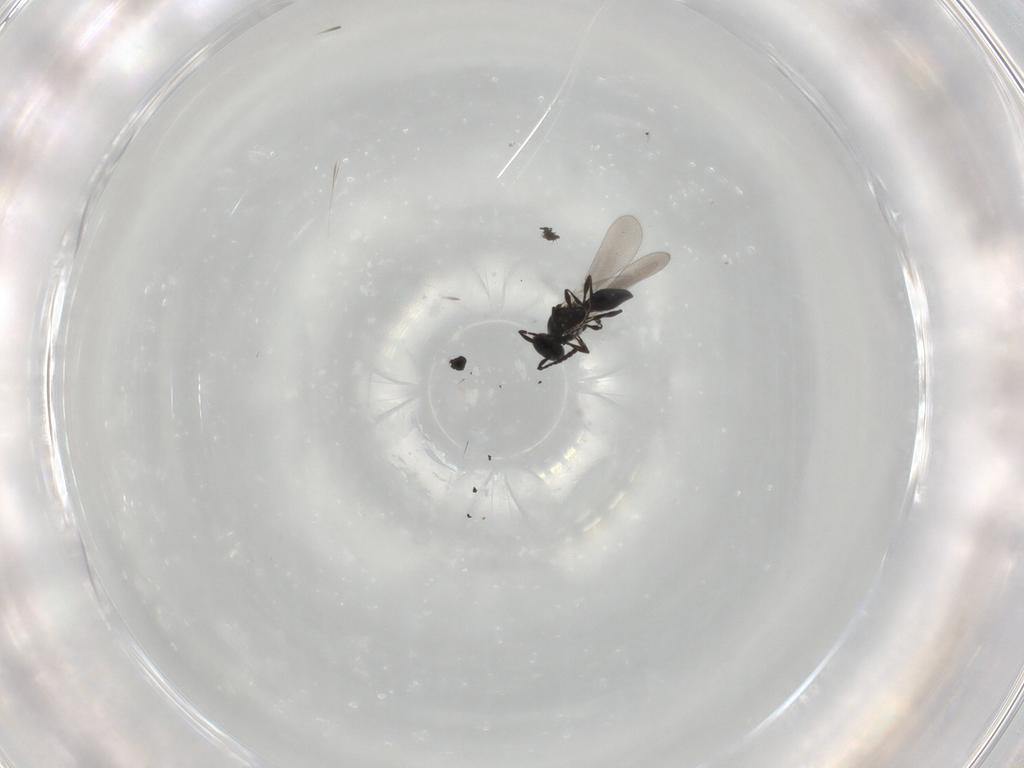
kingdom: Animalia
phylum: Arthropoda
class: Insecta
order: Hymenoptera
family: Platygastridae
